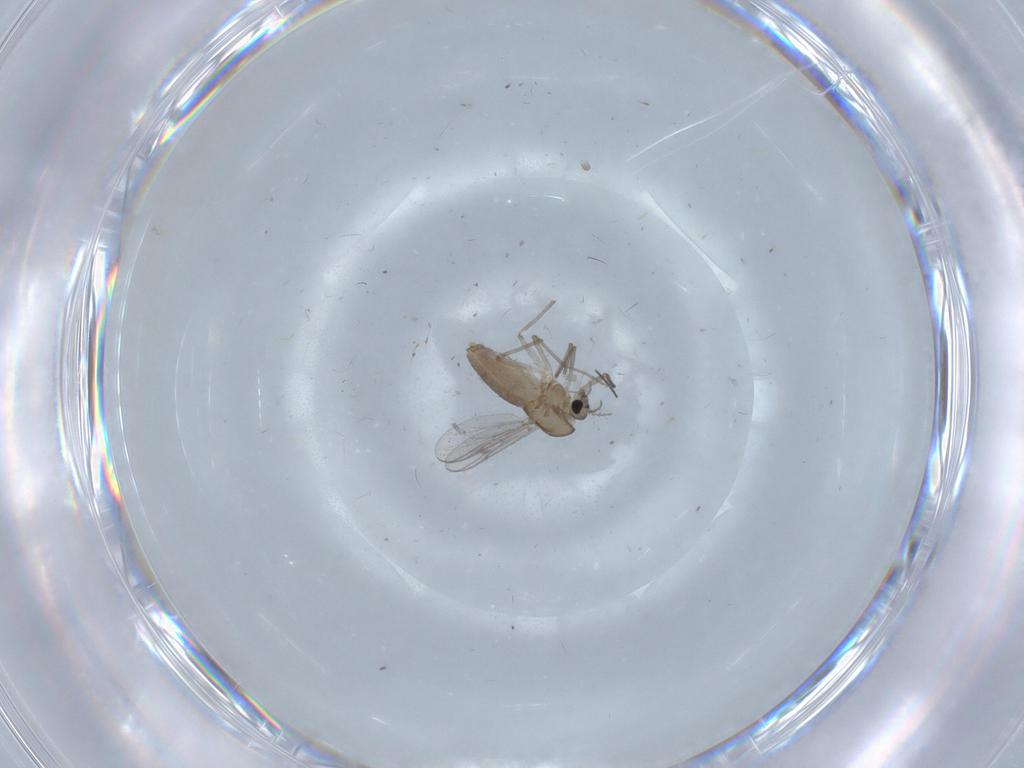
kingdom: Animalia
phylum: Arthropoda
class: Insecta
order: Diptera
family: Chironomidae
